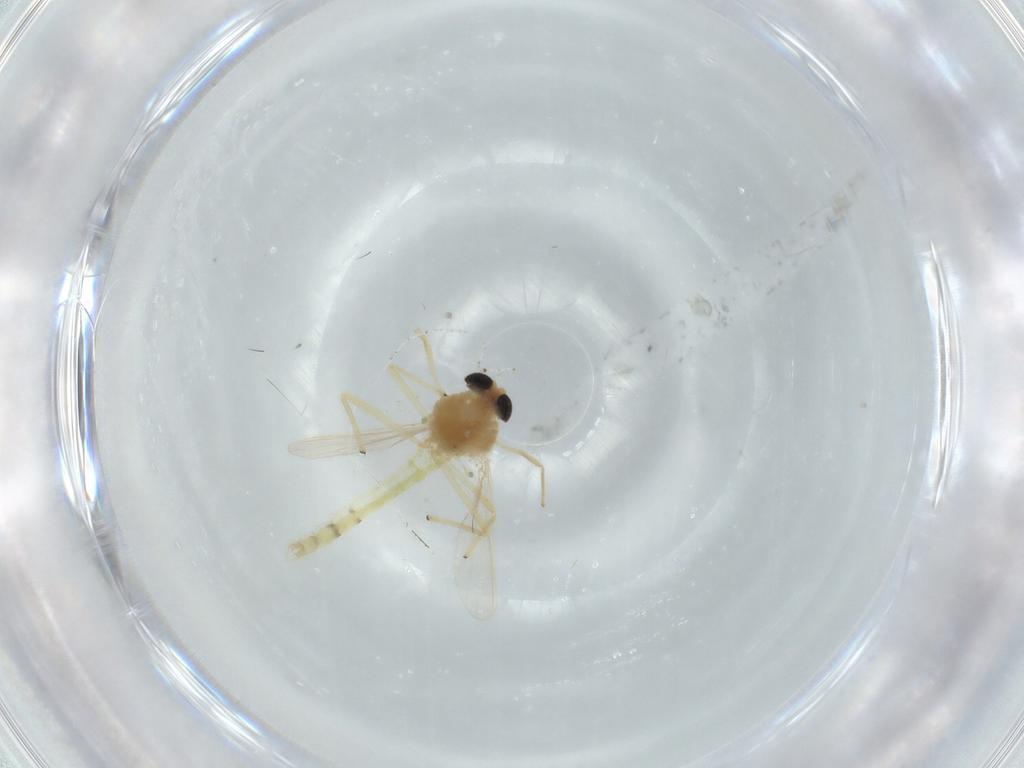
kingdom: Animalia
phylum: Arthropoda
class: Insecta
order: Diptera
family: Chironomidae
